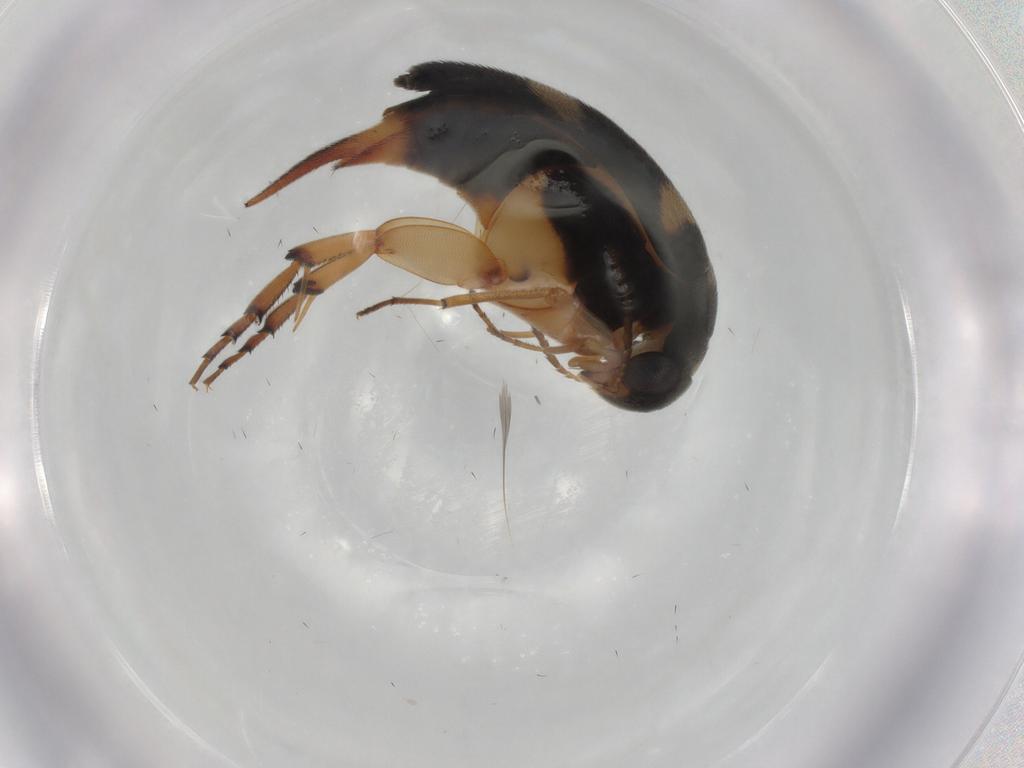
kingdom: Animalia
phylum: Arthropoda
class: Insecta
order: Coleoptera
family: Mordellidae
